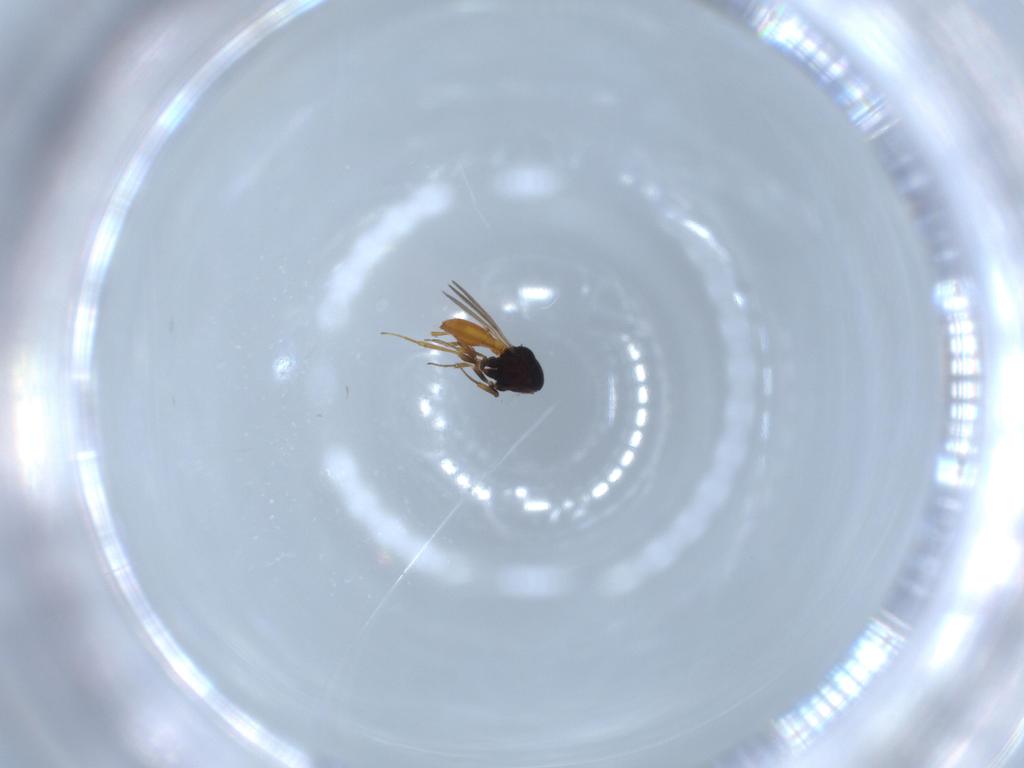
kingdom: Animalia
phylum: Arthropoda
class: Insecta
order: Hymenoptera
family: Scelionidae
